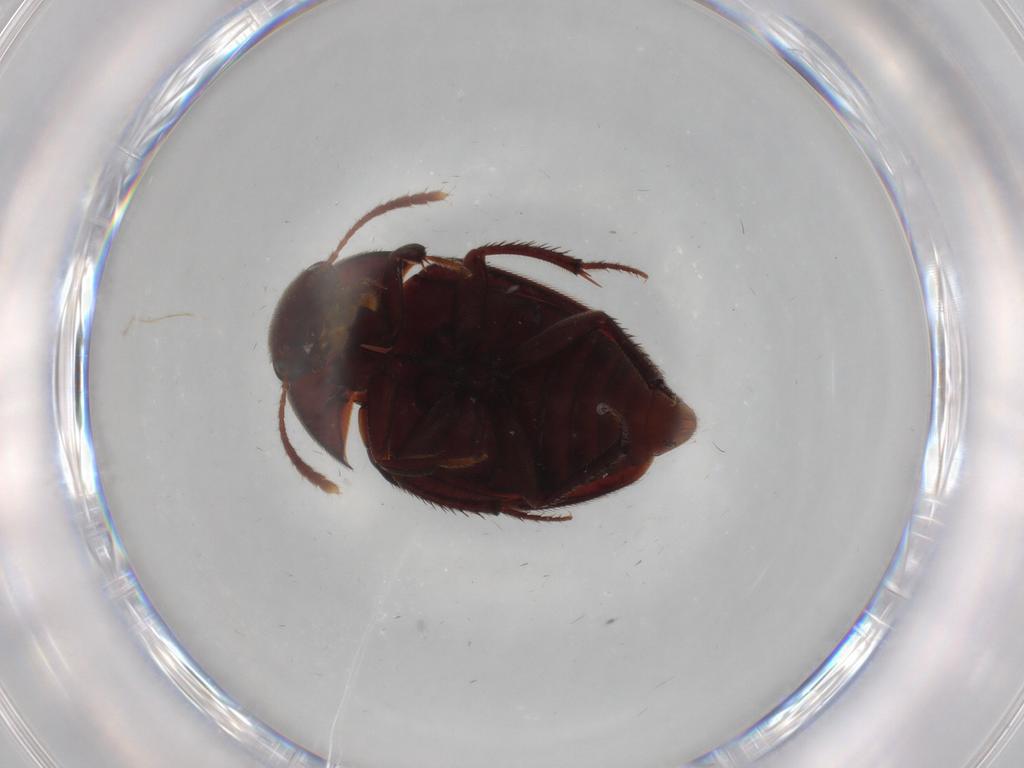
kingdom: Animalia
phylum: Arthropoda
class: Insecta
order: Coleoptera
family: Leiodidae
